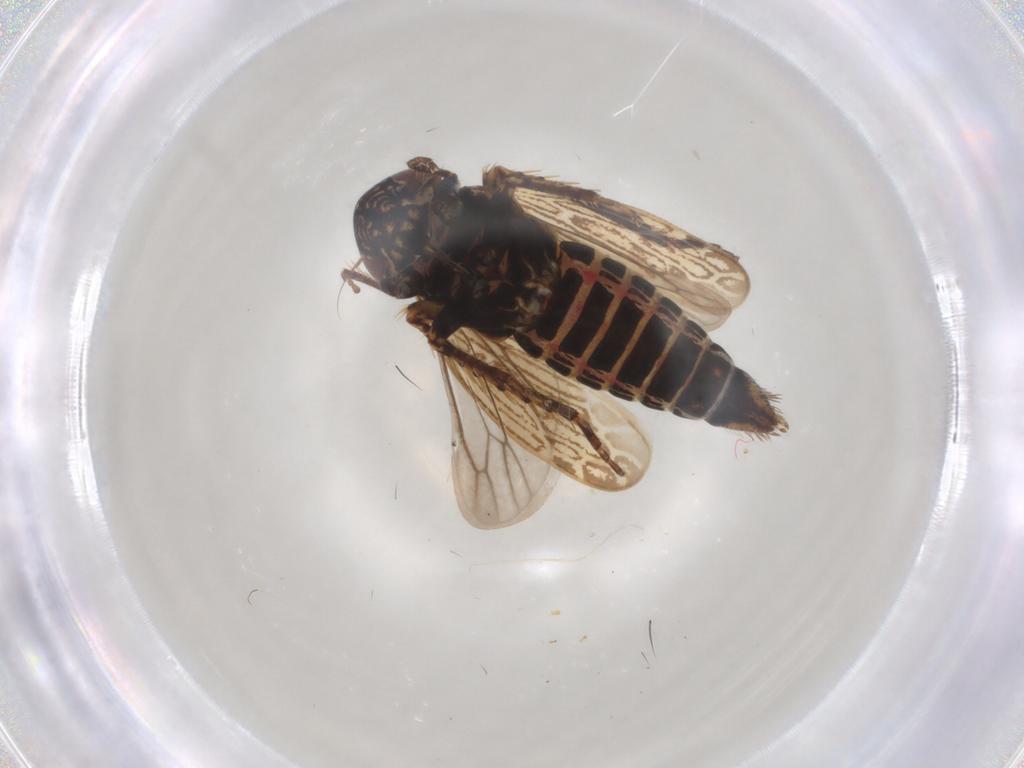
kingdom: Animalia
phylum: Arthropoda
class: Insecta
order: Hemiptera
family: Cicadellidae
